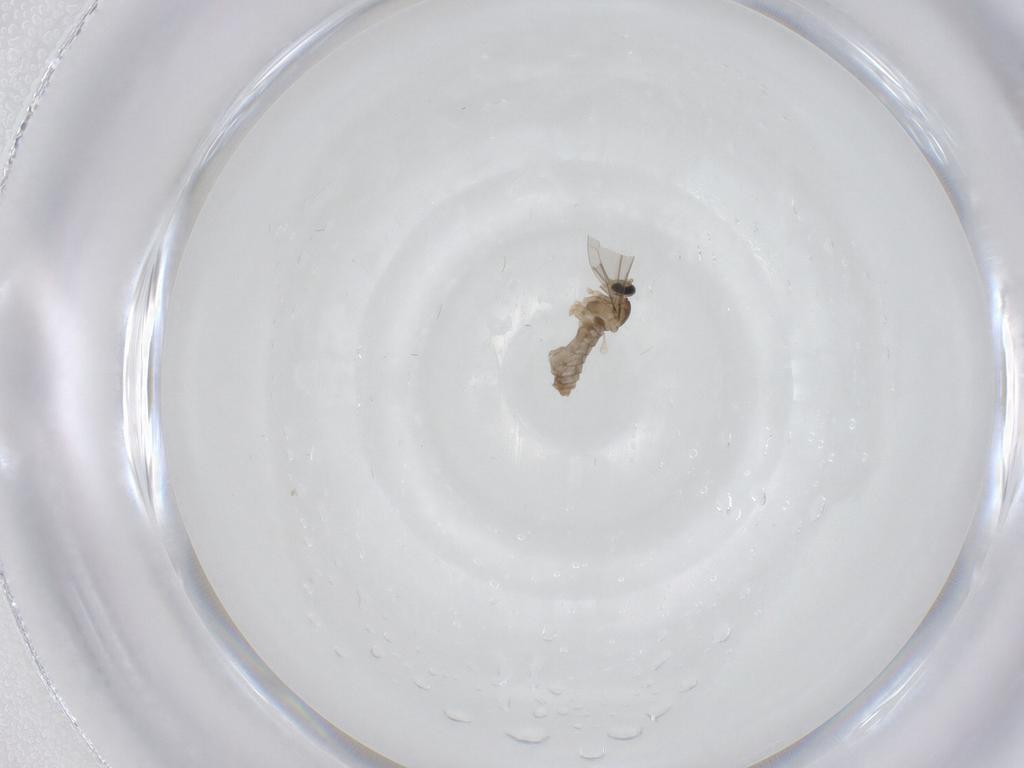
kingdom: Animalia
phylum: Arthropoda
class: Insecta
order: Diptera
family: Cecidomyiidae
